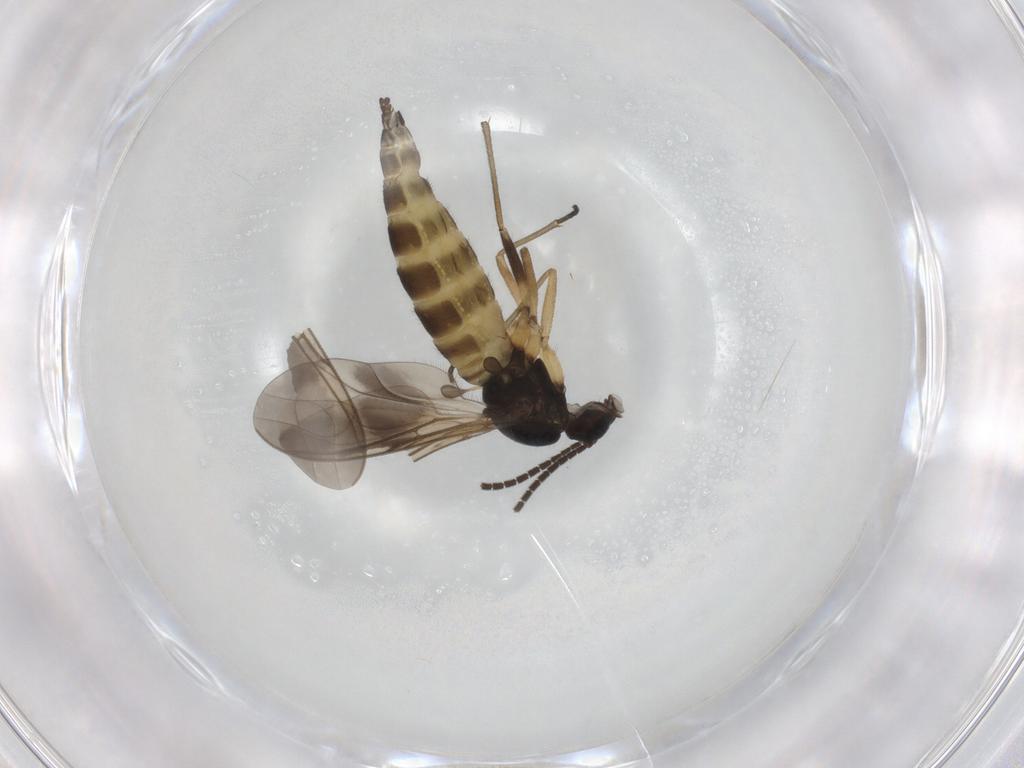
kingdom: Animalia
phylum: Arthropoda
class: Insecta
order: Diptera
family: Sciaridae
